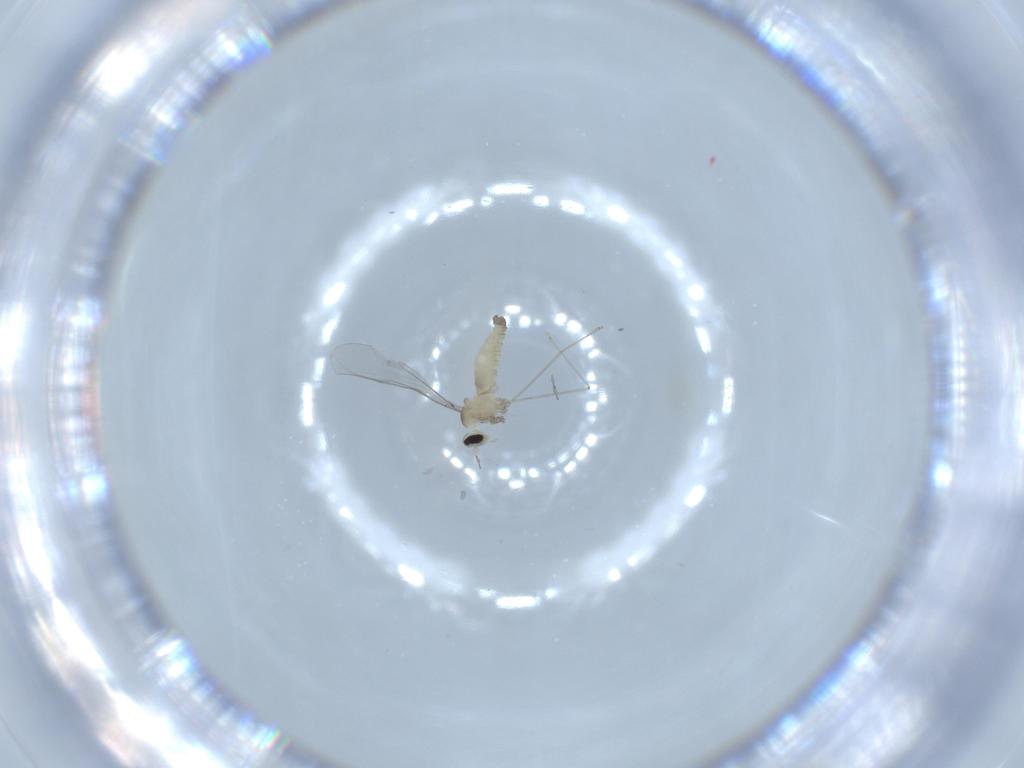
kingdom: Animalia
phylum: Arthropoda
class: Insecta
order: Diptera
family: Cecidomyiidae
